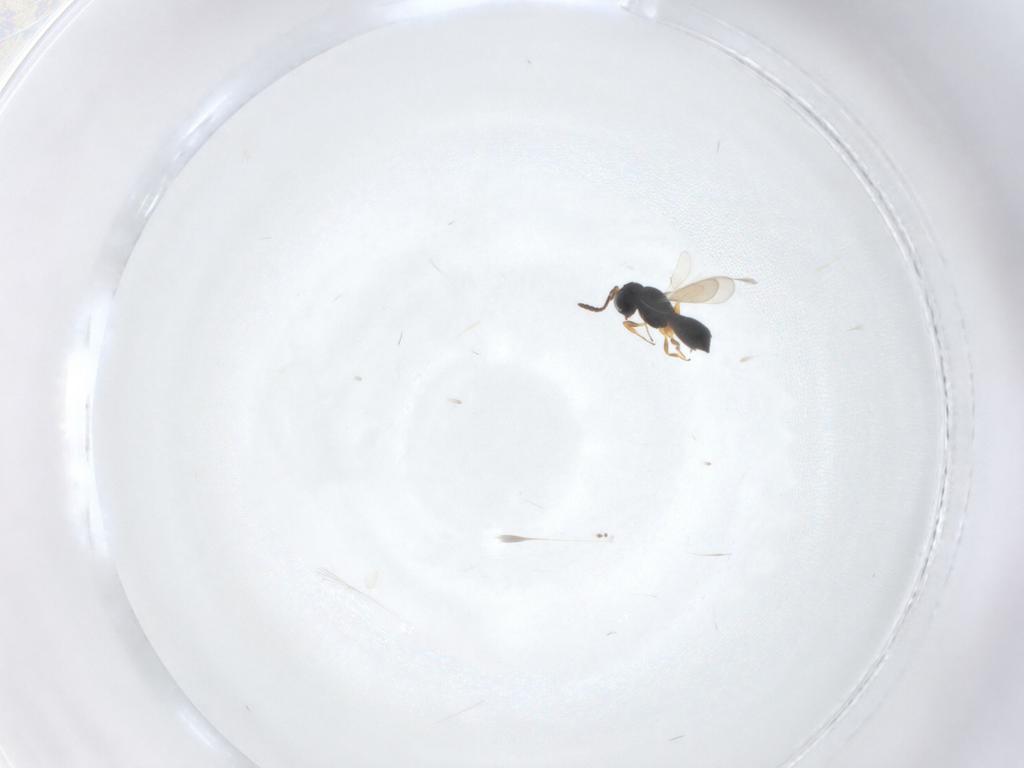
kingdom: Animalia
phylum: Arthropoda
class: Insecta
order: Hymenoptera
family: Scelionidae
